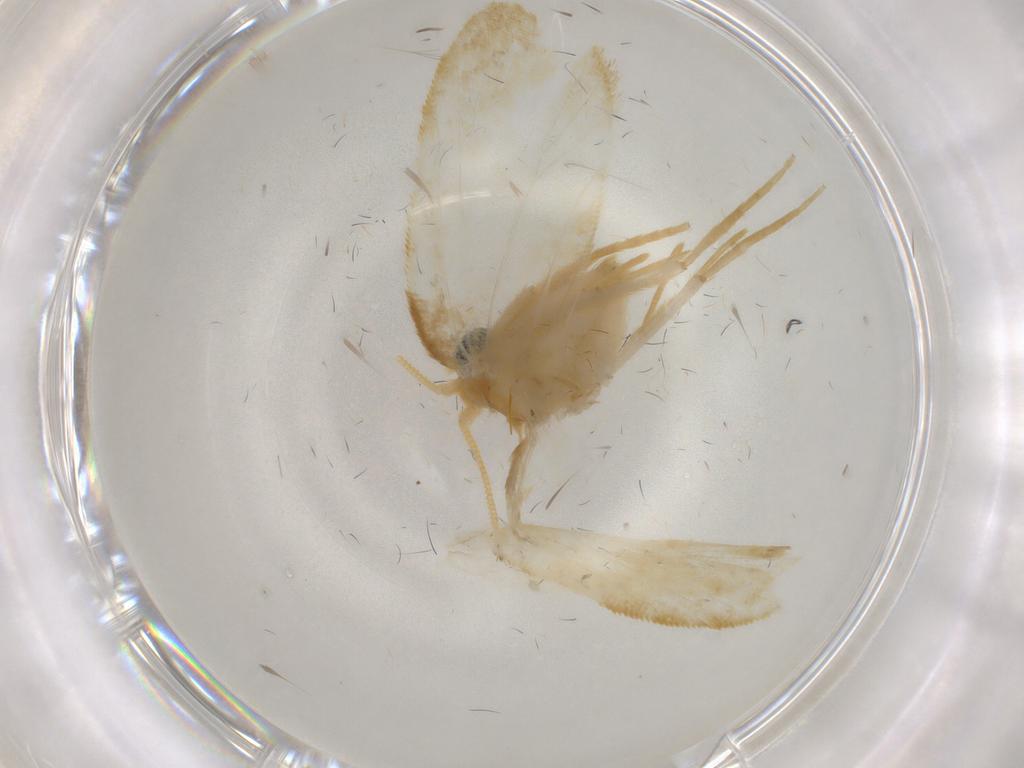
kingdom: Animalia
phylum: Arthropoda
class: Insecta
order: Lepidoptera
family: Psychidae
